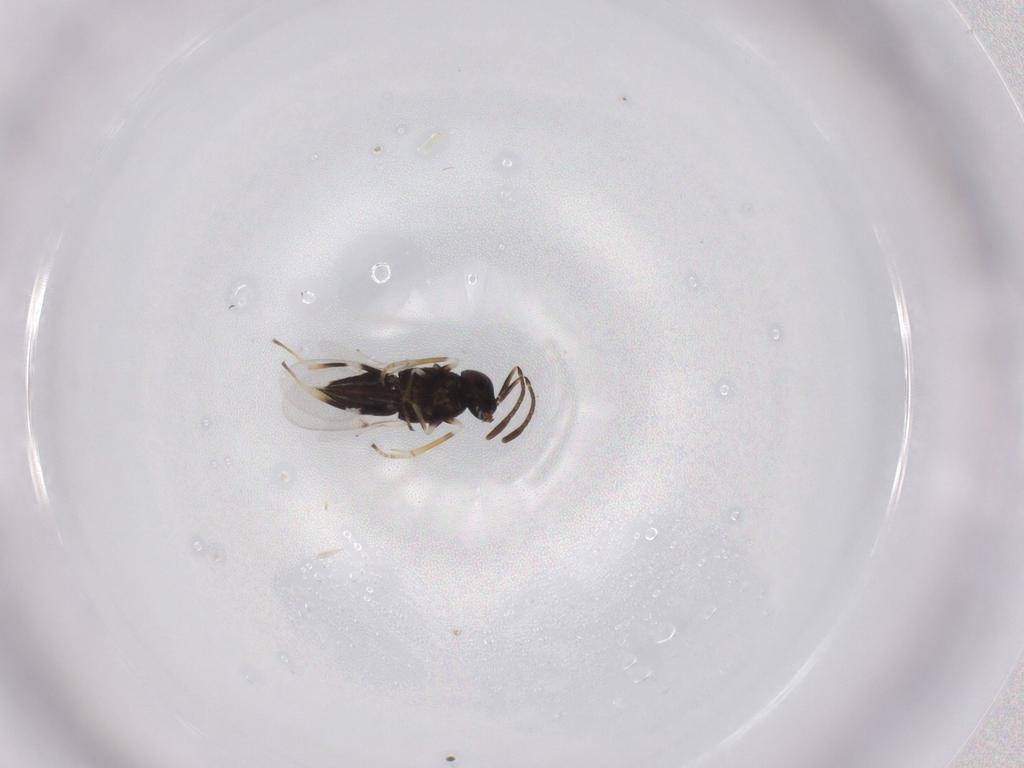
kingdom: Animalia
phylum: Arthropoda
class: Insecta
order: Hymenoptera
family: Encyrtidae
